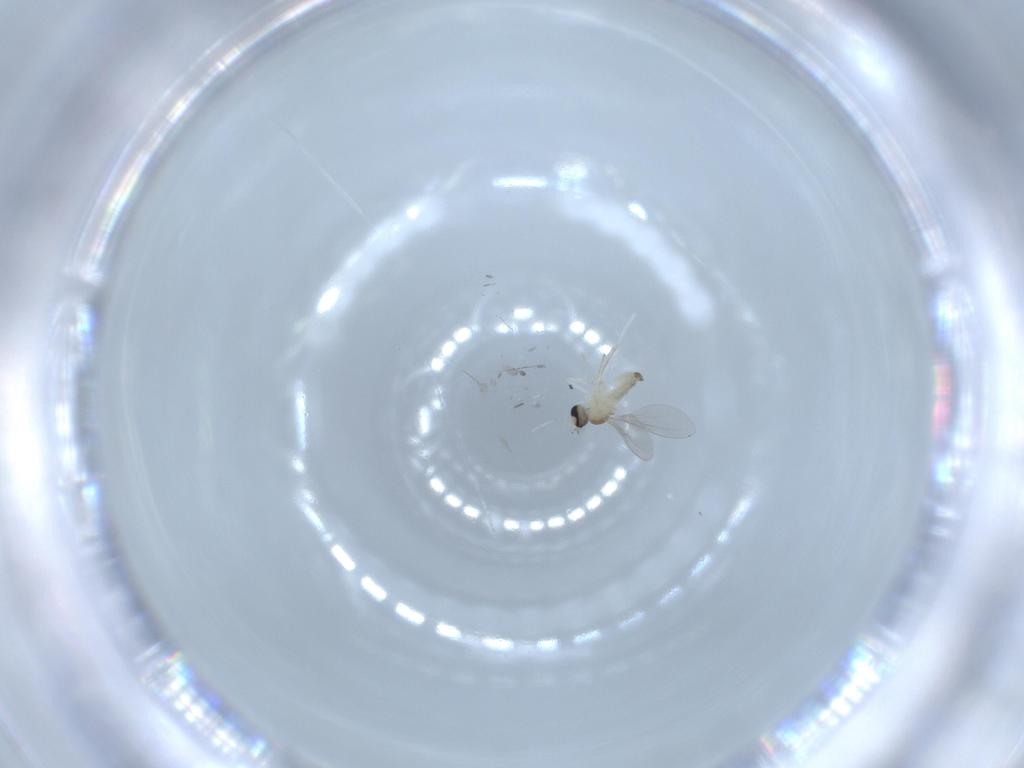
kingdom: Animalia
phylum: Arthropoda
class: Insecta
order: Diptera
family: Cecidomyiidae
